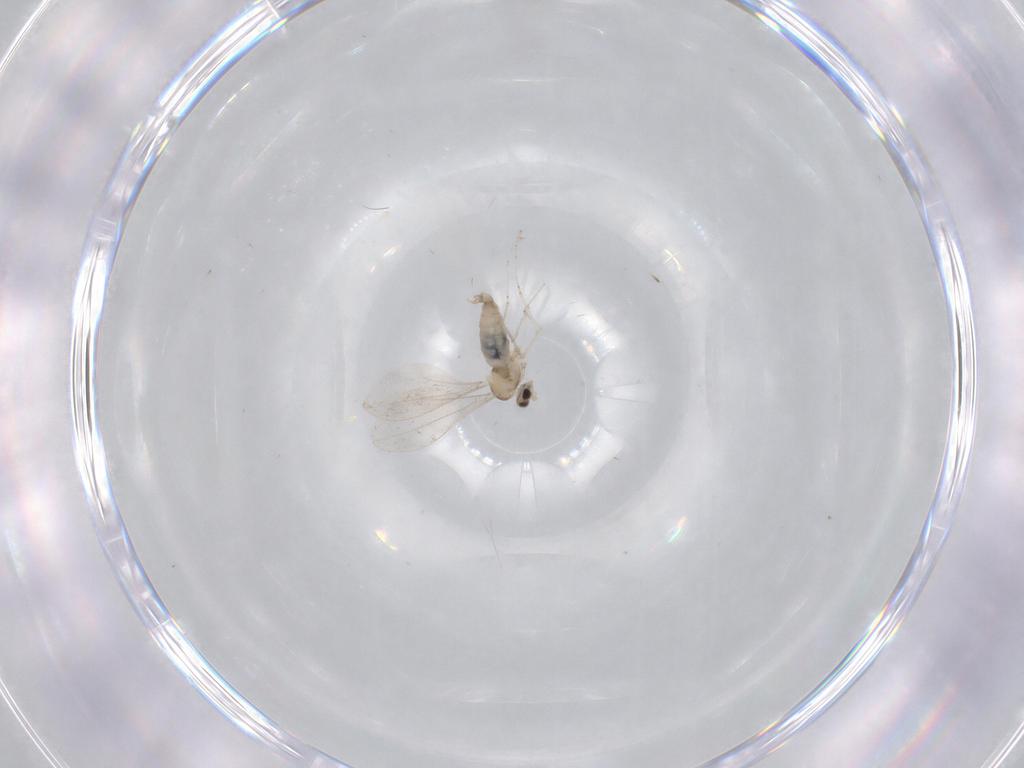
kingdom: Animalia
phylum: Arthropoda
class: Insecta
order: Diptera
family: Cecidomyiidae
